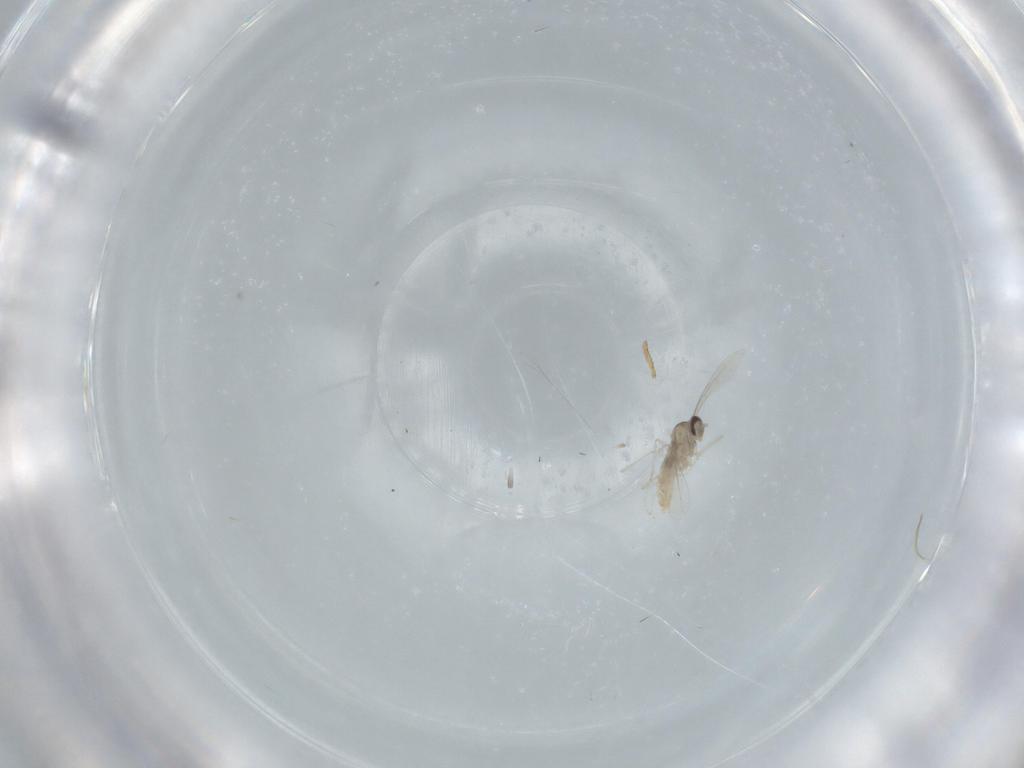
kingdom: Animalia
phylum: Arthropoda
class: Insecta
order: Diptera
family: Cecidomyiidae
